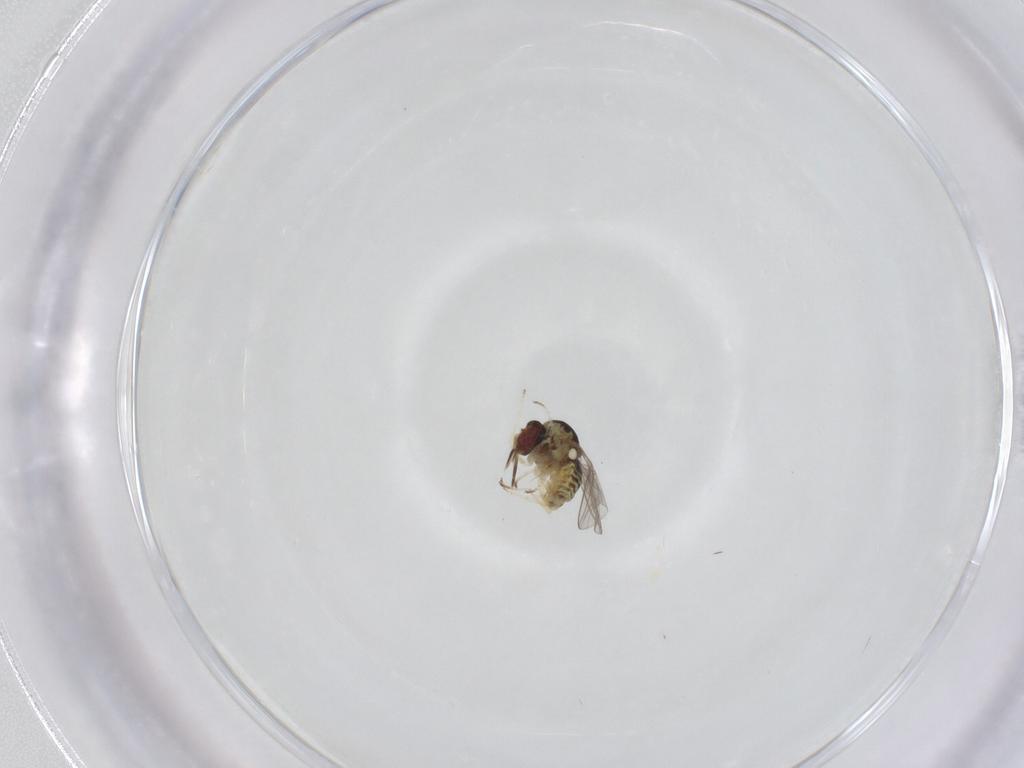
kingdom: Animalia
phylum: Arthropoda
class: Insecta
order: Diptera
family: Mythicomyiidae
